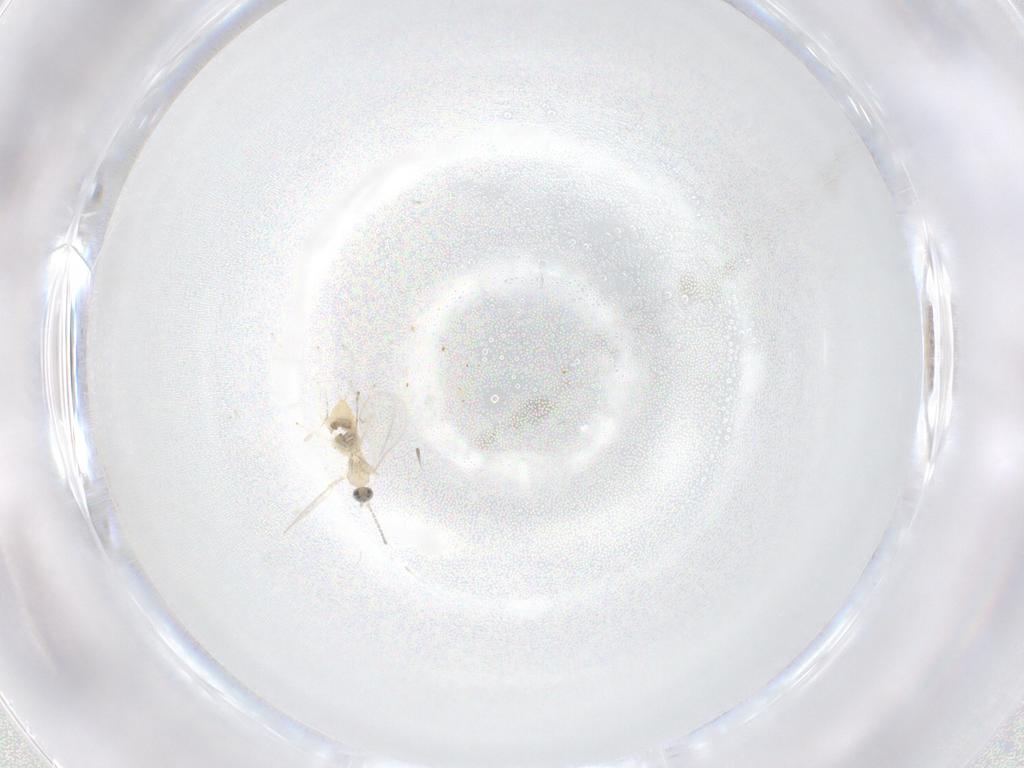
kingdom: Animalia
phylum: Arthropoda
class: Insecta
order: Diptera
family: Cecidomyiidae
